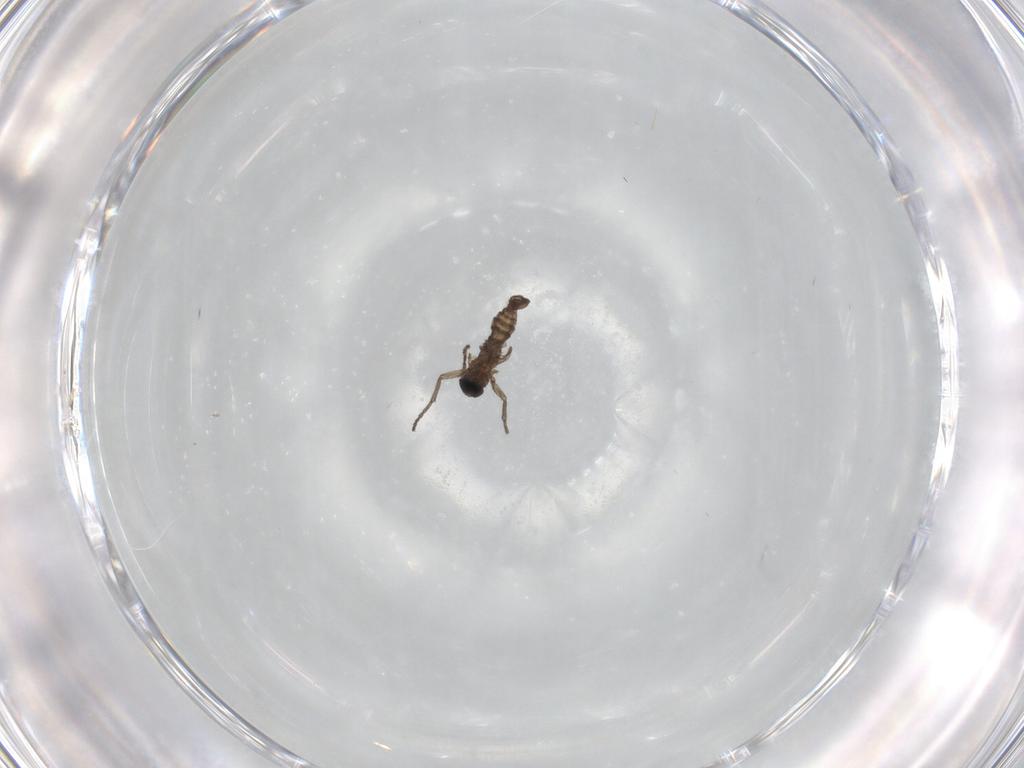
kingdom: Animalia
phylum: Arthropoda
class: Insecta
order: Diptera
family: Sciaridae
